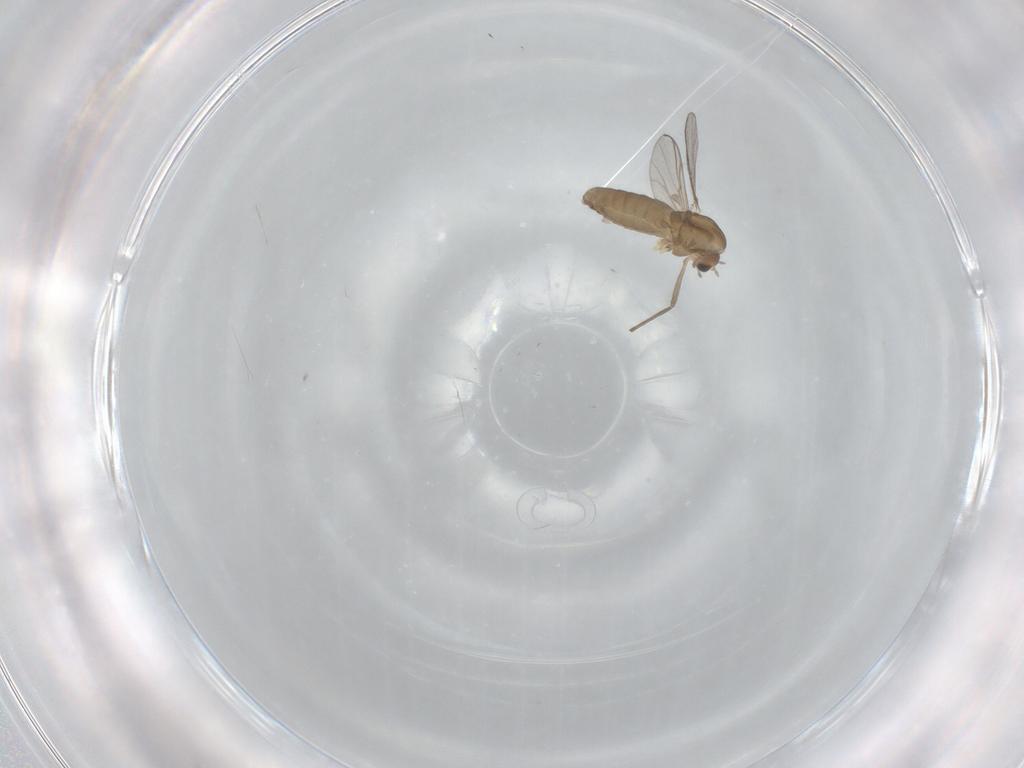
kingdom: Animalia
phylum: Arthropoda
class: Insecta
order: Diptera
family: Chironomidae
